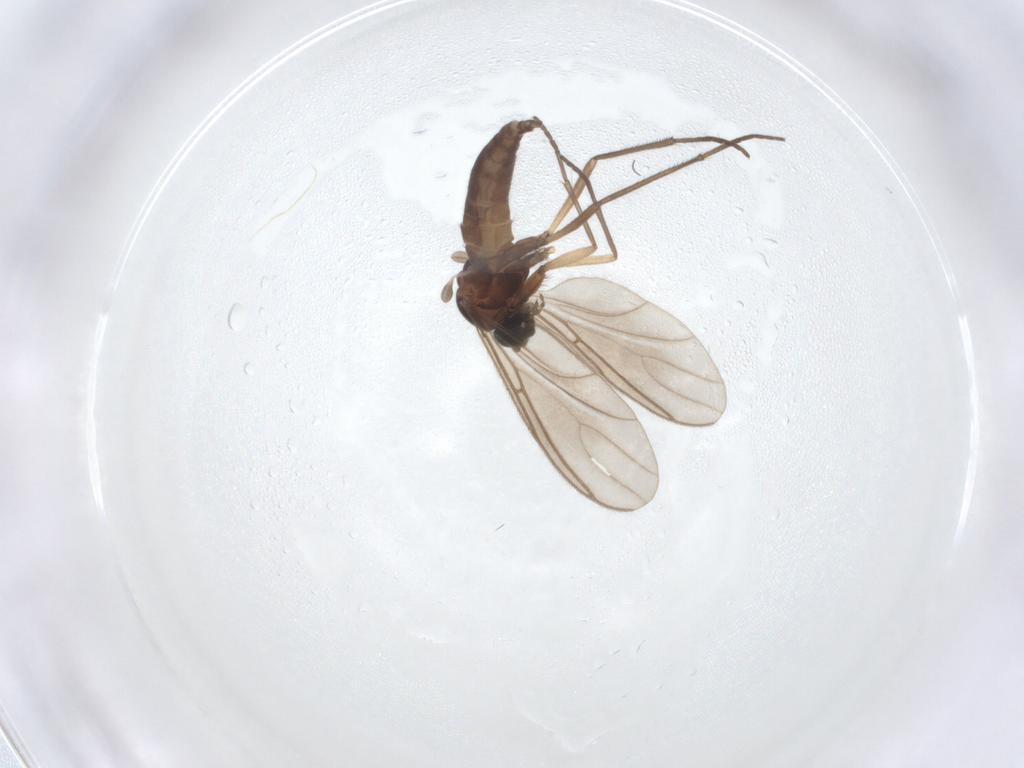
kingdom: Animalia
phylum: Arthropoda
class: Insecta
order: Diptera
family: Sciaridae
